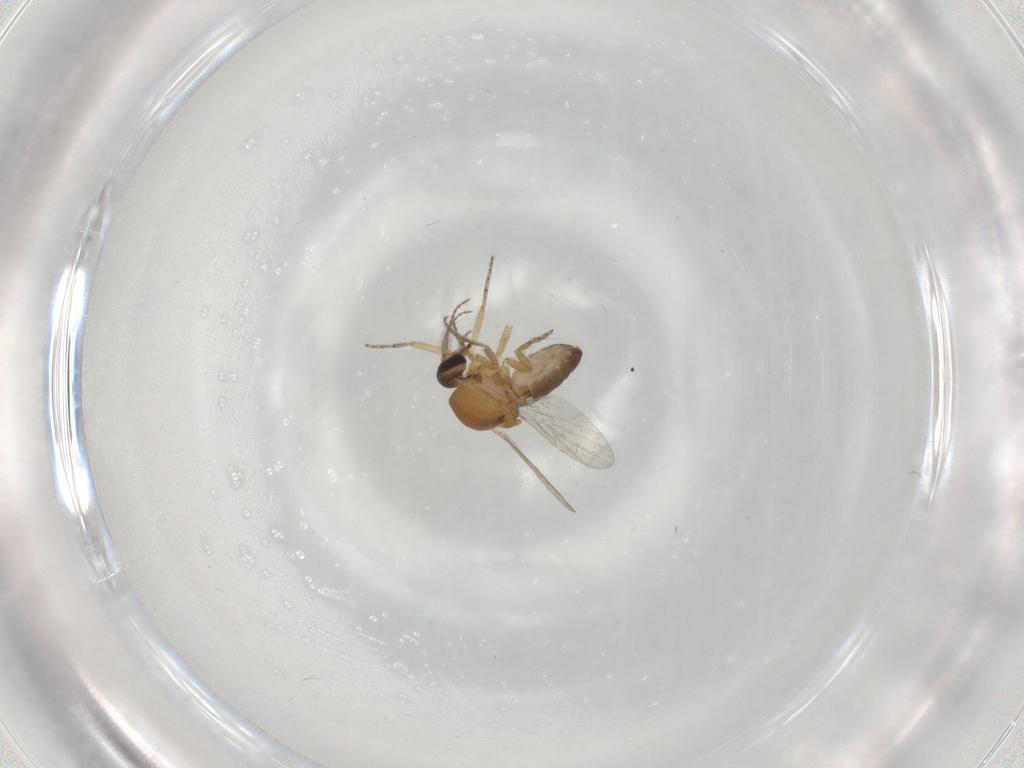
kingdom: Animalia
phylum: Arthropoda
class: Insecta
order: Diptera
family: Ceratopogonidae
